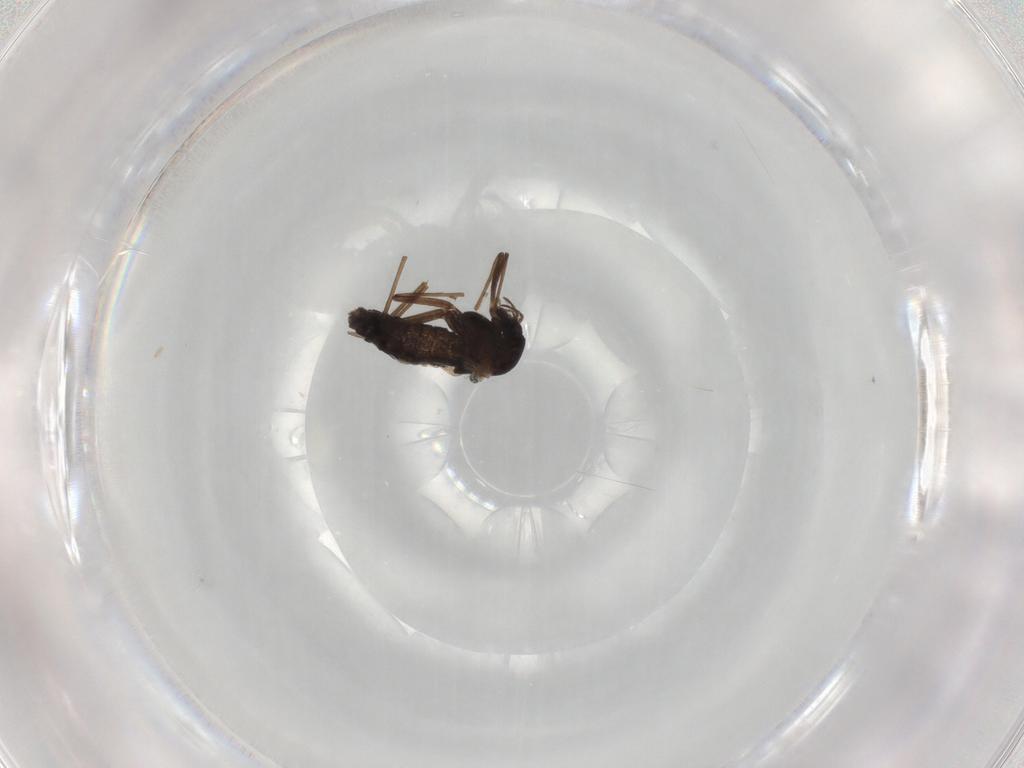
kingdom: Animalia
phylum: Arthropoda
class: Insecta
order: Diptera
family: Chironomidae
